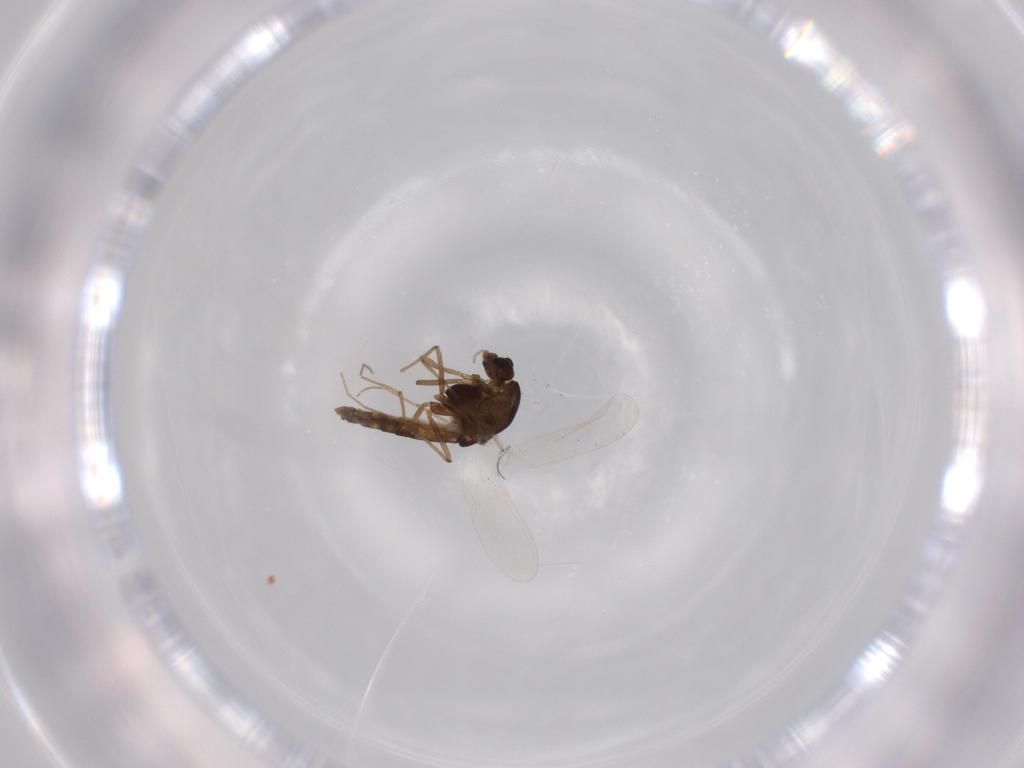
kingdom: Animalia
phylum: Arthropoda
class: Insecta
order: Diptera
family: Chironomidae
